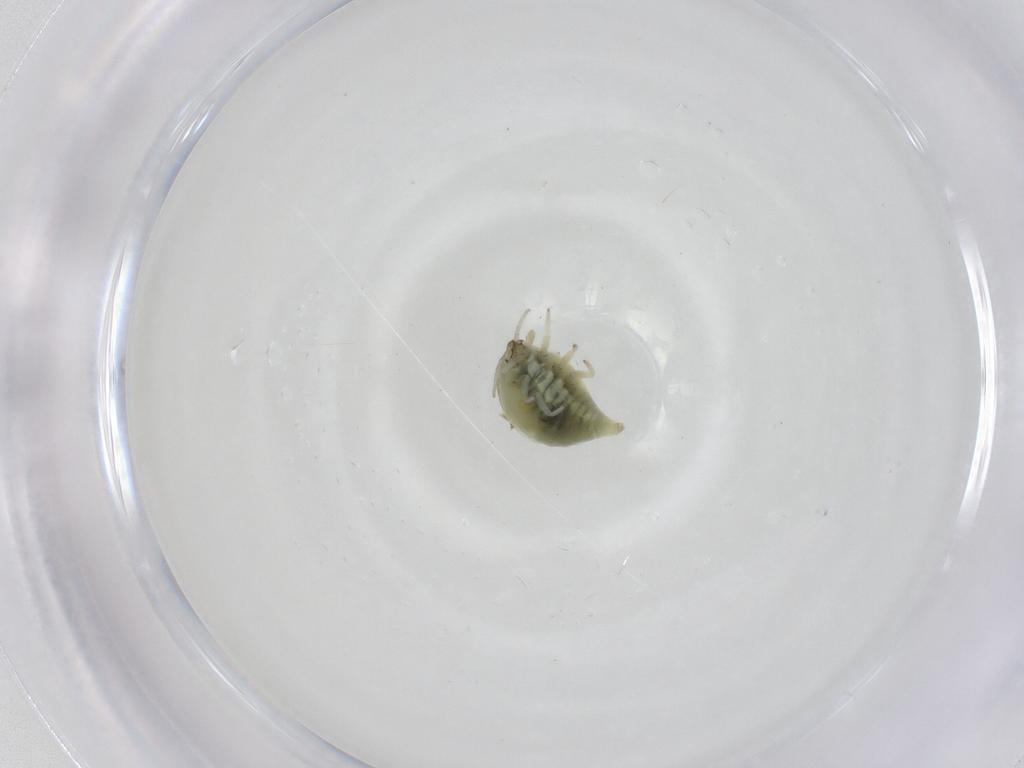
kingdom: Animalia
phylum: Arthropoda
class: Insecta
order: Neuroptera
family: Coniopterygidae
